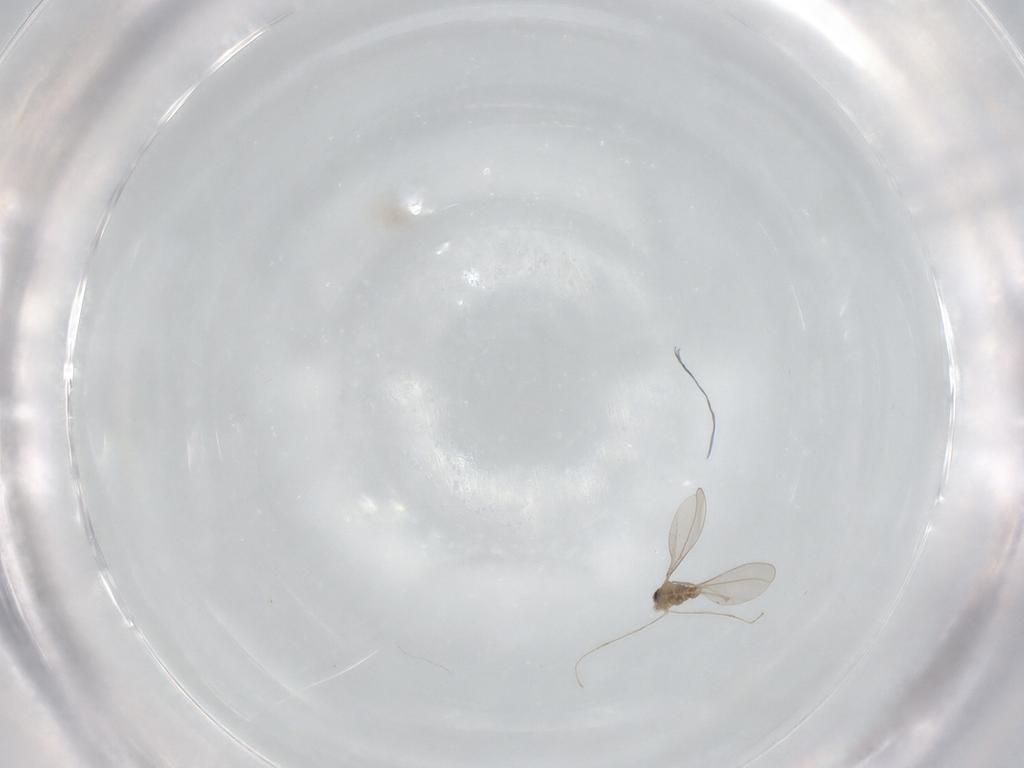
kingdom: Animalia
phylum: Arthropoda
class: Insecta
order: Diptera
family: Cecidomyiidae
